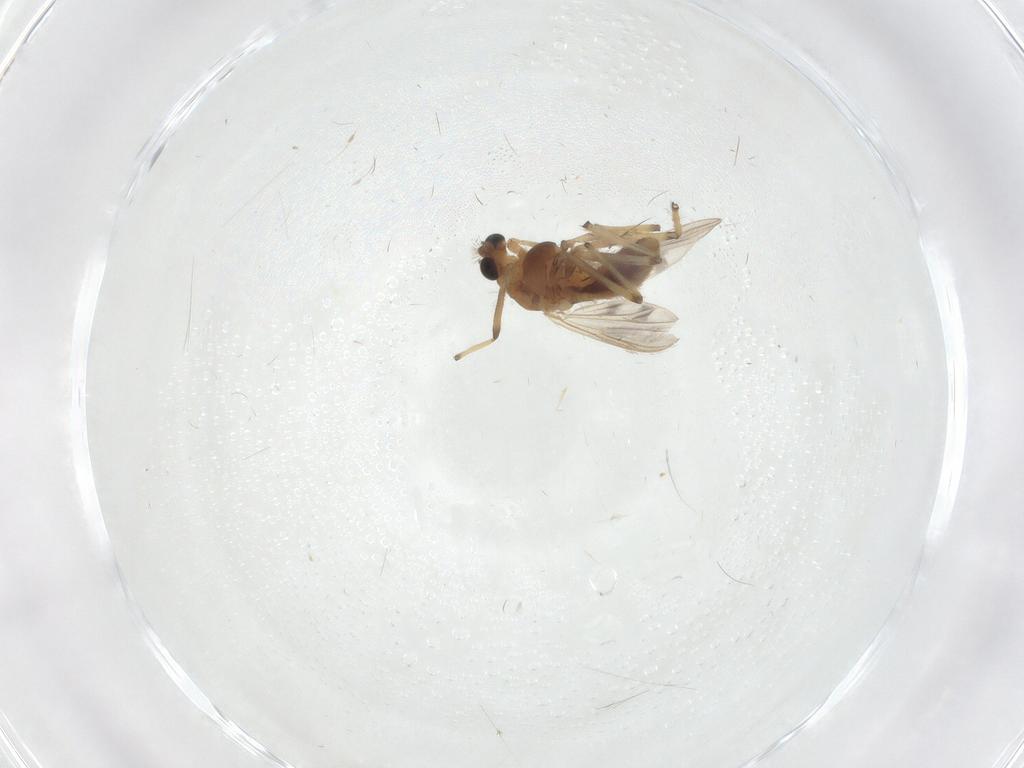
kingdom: Animalia
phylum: Arthropoda
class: Insecta
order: Diptera
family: Chironomidae
